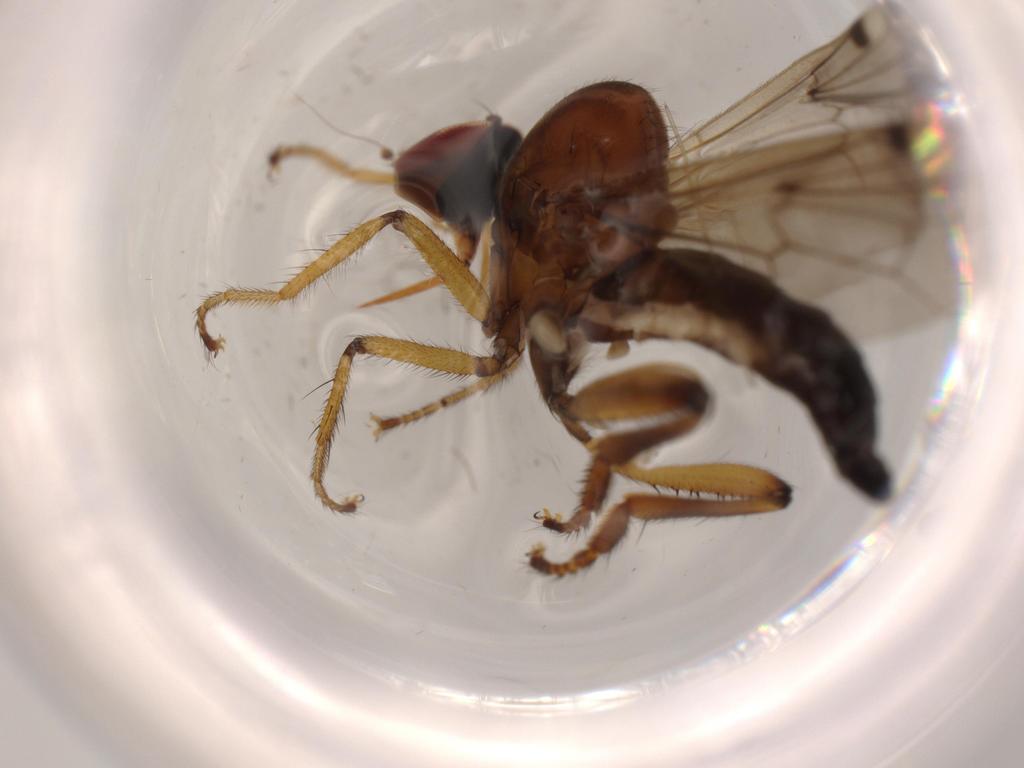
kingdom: Animalia
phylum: Arthropoda
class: Insecta
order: Diptera
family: Hybotidae
